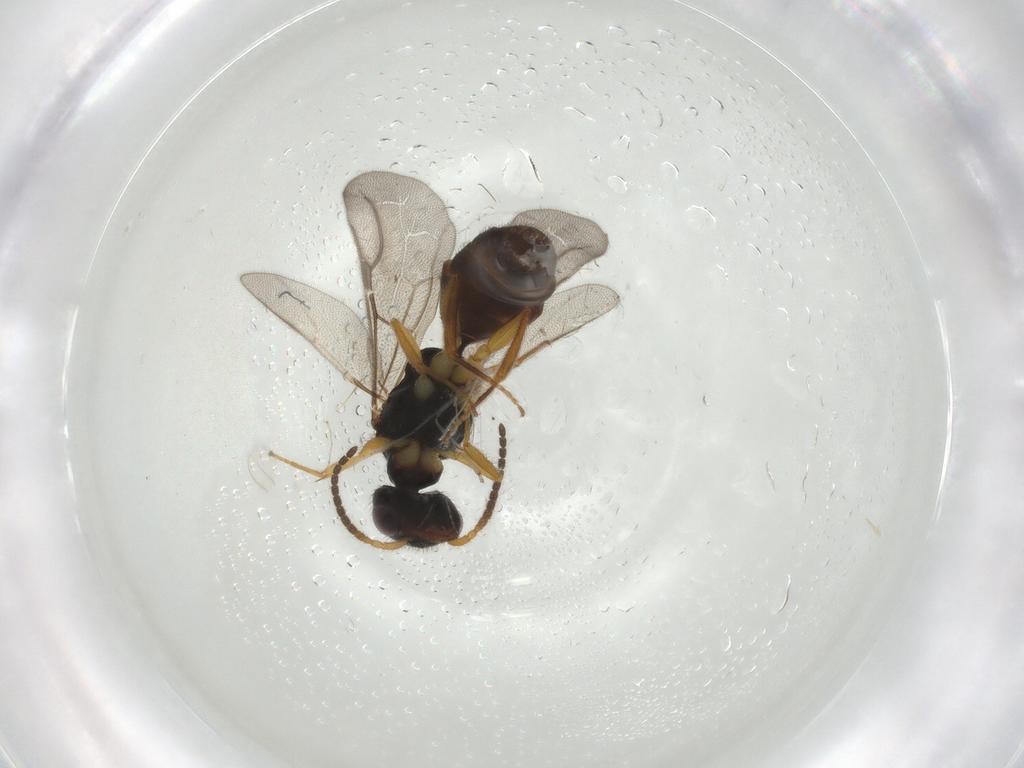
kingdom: Animalia
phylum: Arthropoda
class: Insecta
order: Hymenoptera
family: Bethylidae
